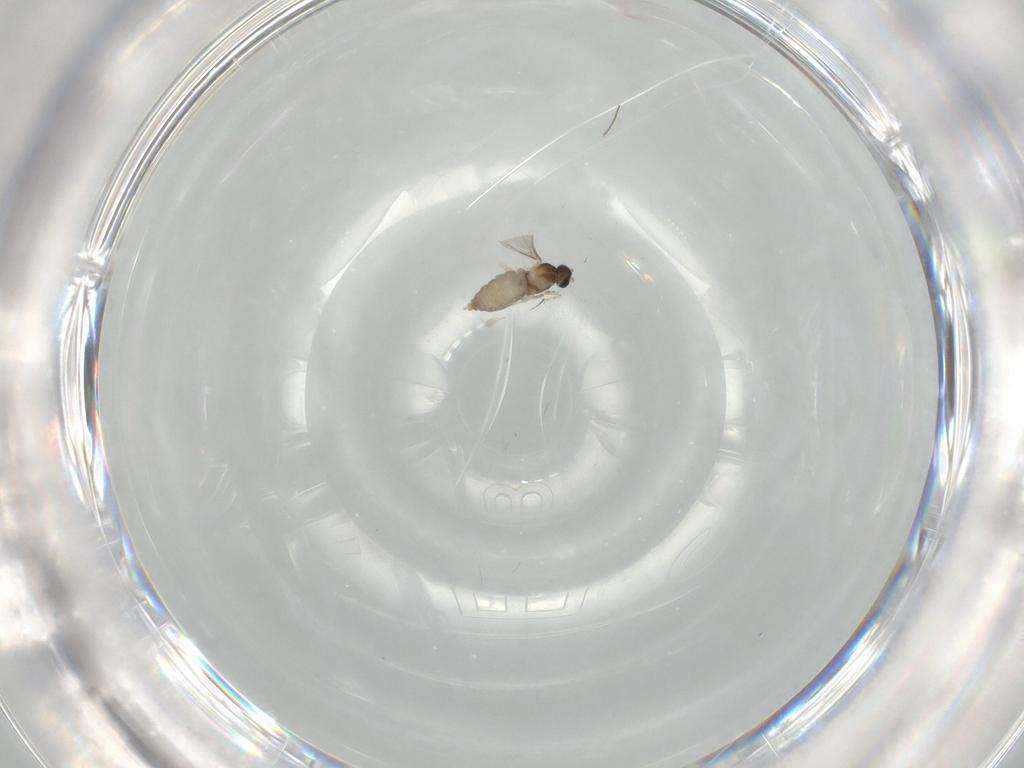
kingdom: Animalia
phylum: Arthropoda
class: Insecta
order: Diptera
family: Chironomidae
